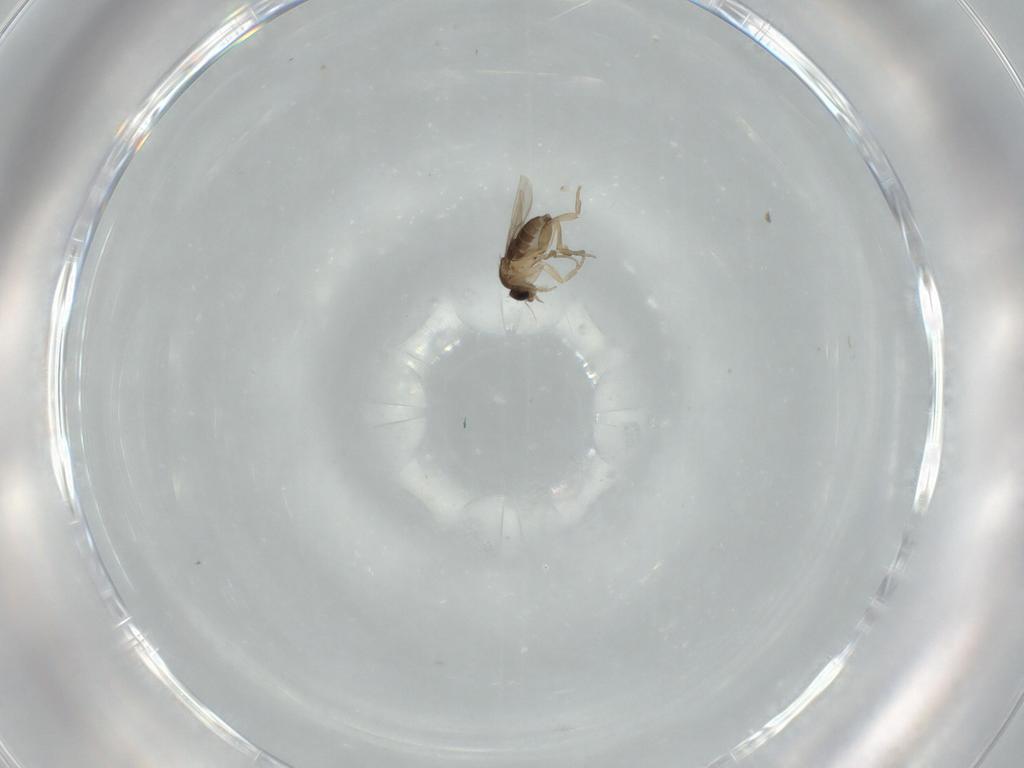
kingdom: Animalia
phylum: Arthropoda
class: Insecta
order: Diptera
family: Phoridae
